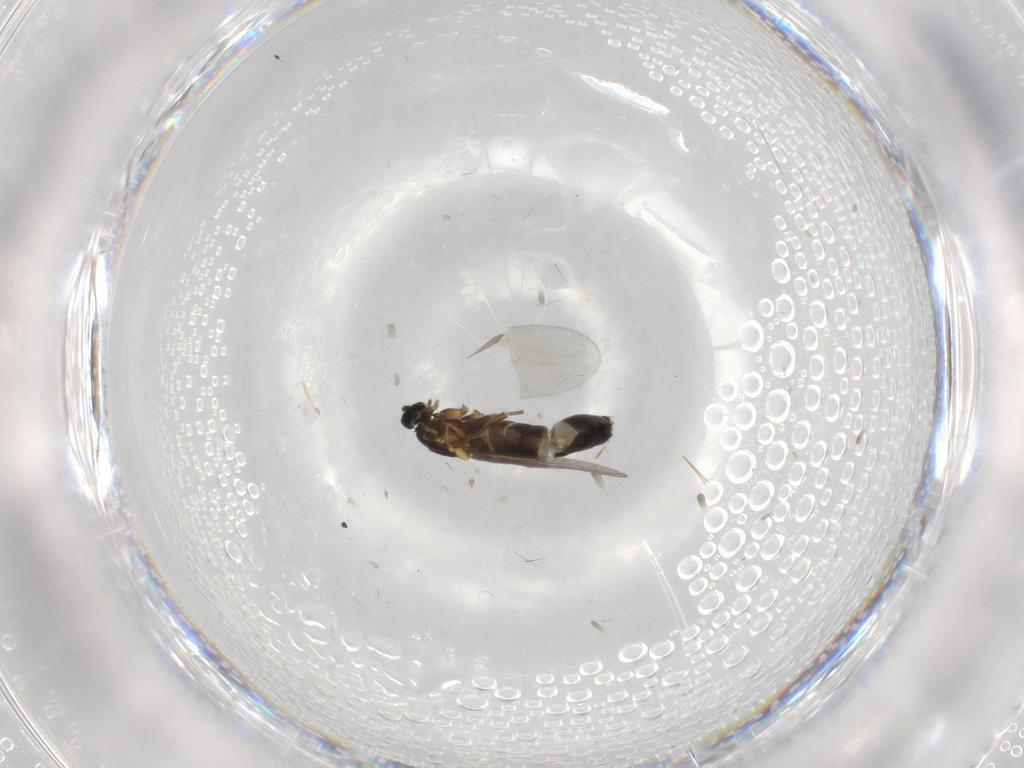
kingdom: Animalia
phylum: Arthropoda
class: Insecta
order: Diptera
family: Scatopsidae
